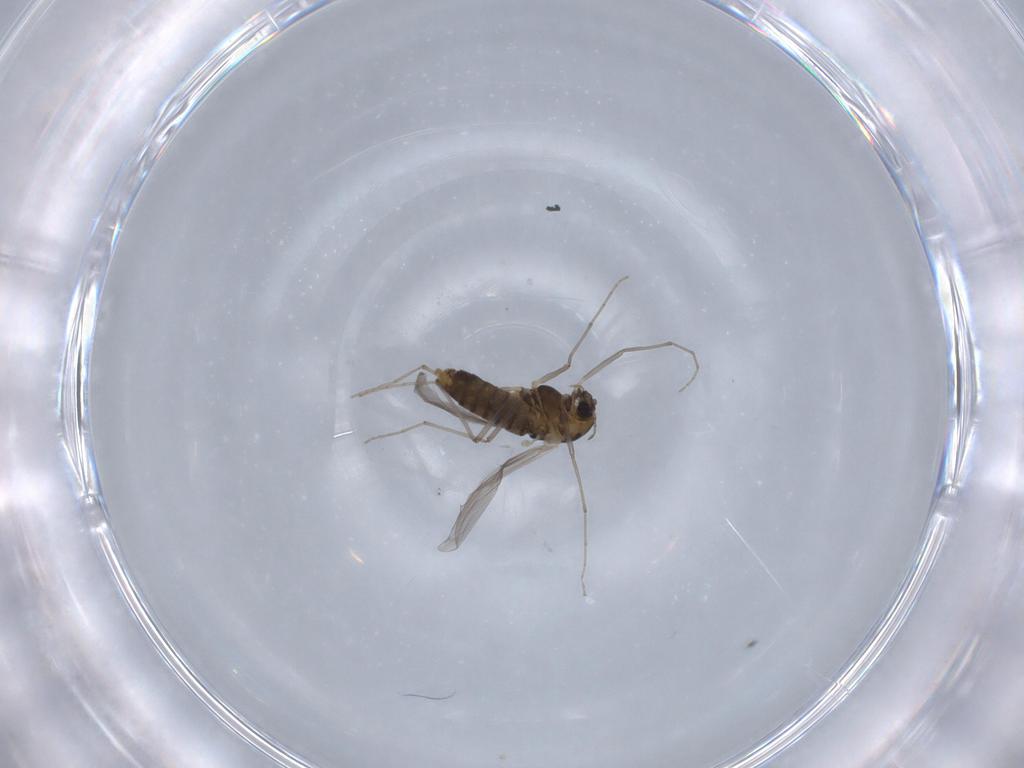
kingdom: Animalia
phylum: Arthropoda
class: Insecta
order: Diptera
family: Chironomidae
